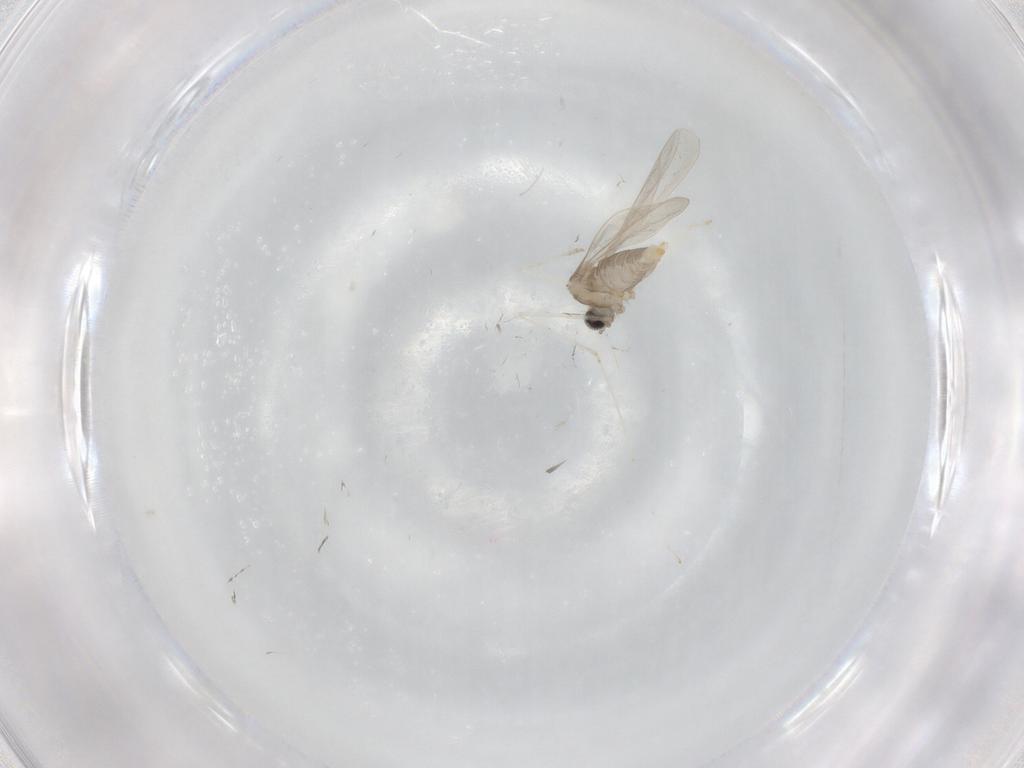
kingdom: Animalia
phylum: Arthropoda
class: Insecta
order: Diptera
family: Cecidomyiidae
